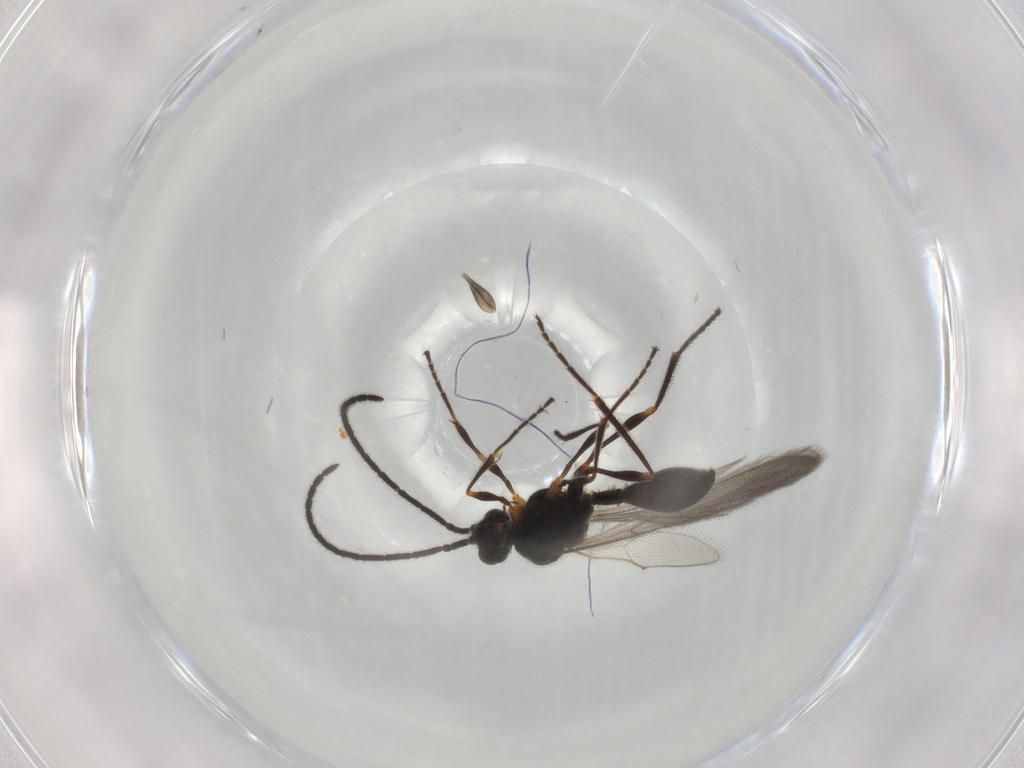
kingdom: Animalia
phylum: Arthropoda
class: Insecta
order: Hymenoptera
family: Diapriidae
